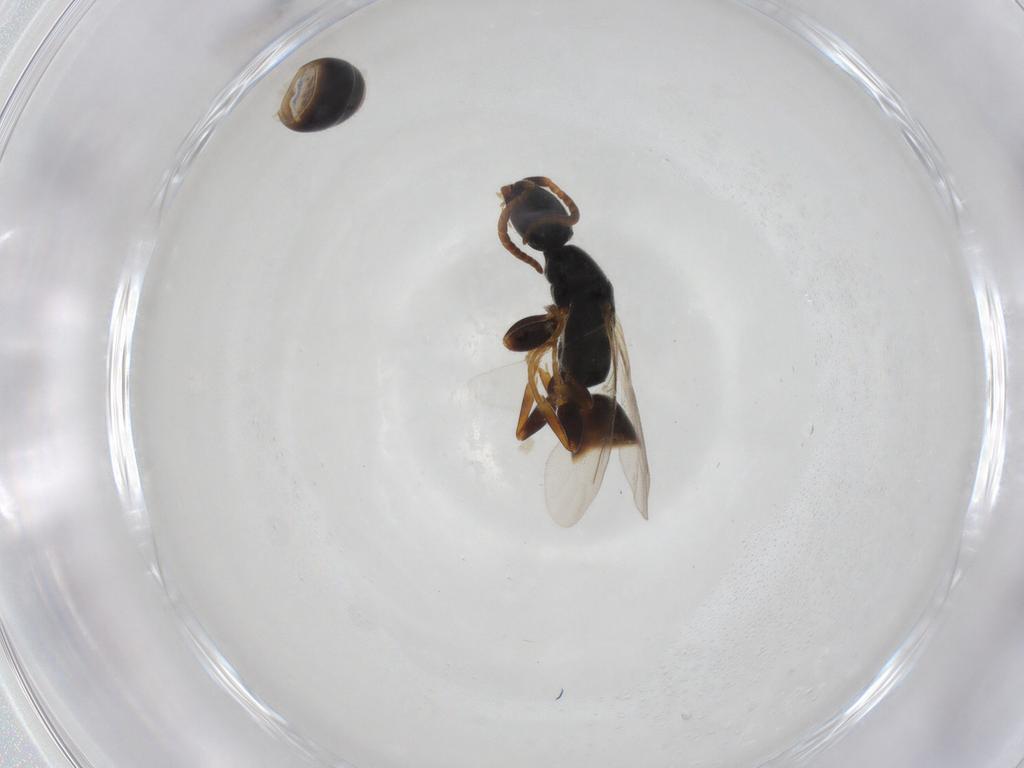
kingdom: Animalia
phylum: Arthropoda
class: Insecta
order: Hymenoptera
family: Bethylidae
